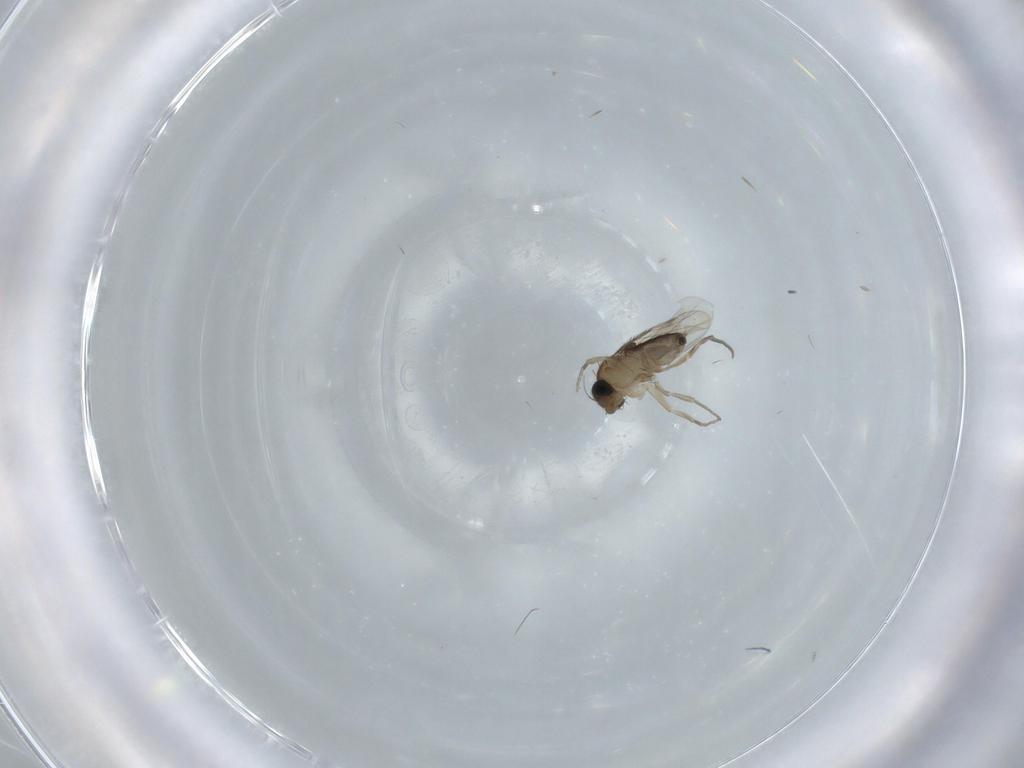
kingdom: Animalia
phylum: Arthropoda
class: Insecta
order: Diptera
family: Phoridae
